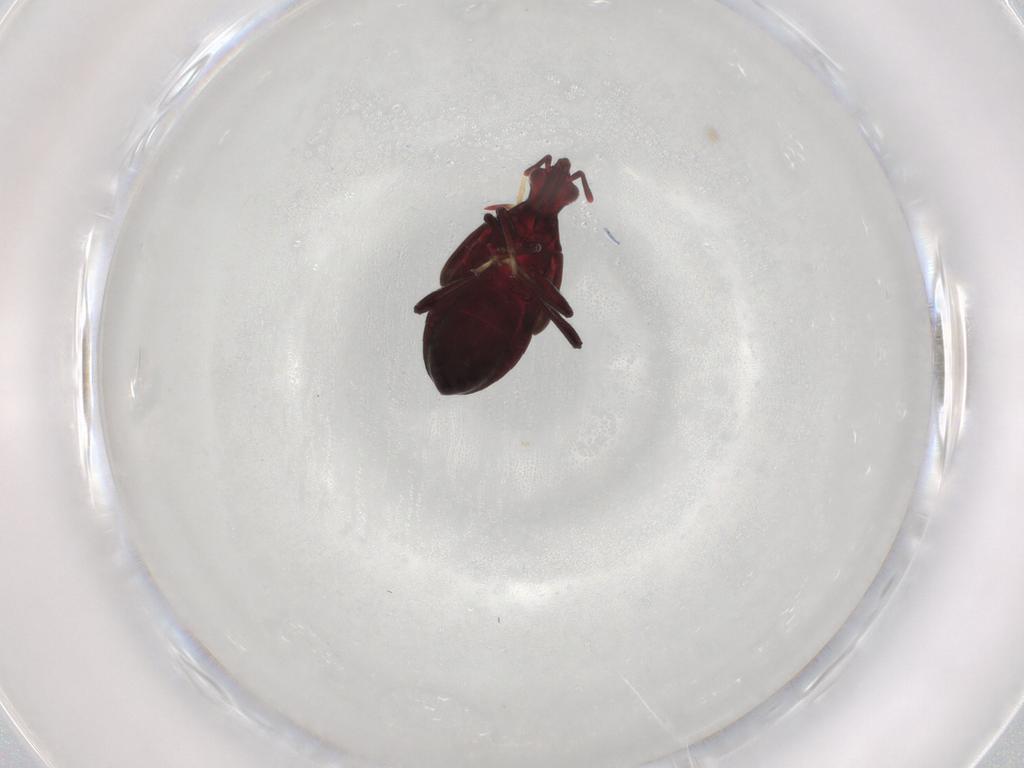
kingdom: Animalia
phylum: Arthropoda
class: Insecta
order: Hemiptera
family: Anthocoridae
